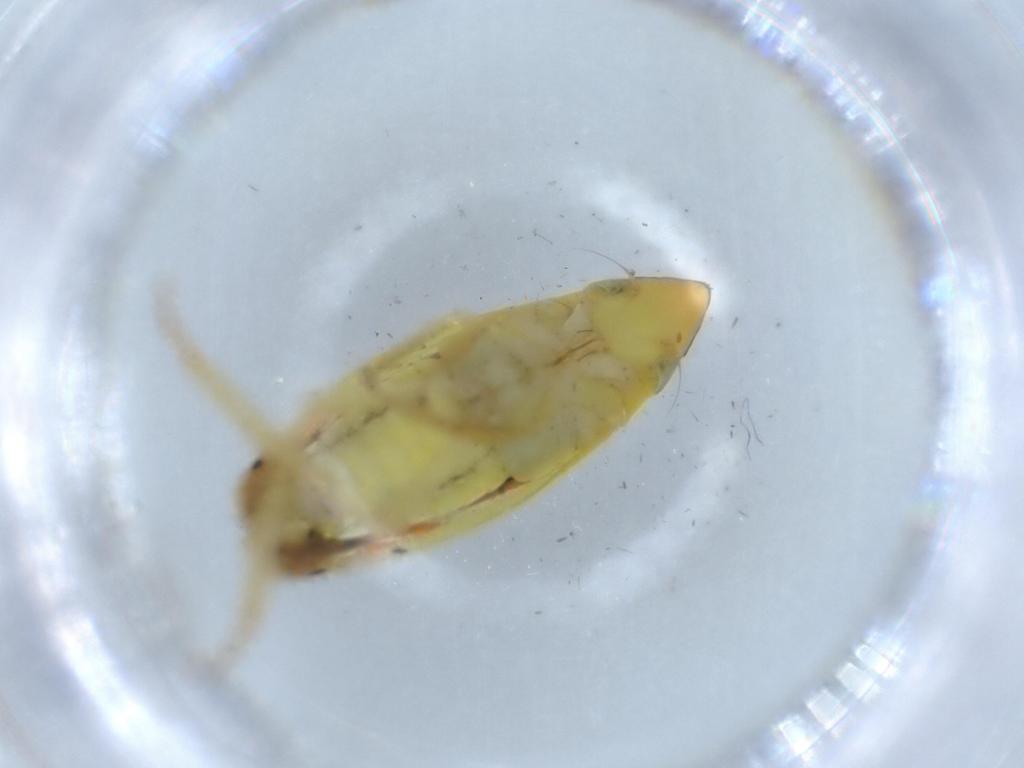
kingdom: Animalia
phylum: Arthropoda
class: Insecta
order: Hemiptera
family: Cicadellidae
